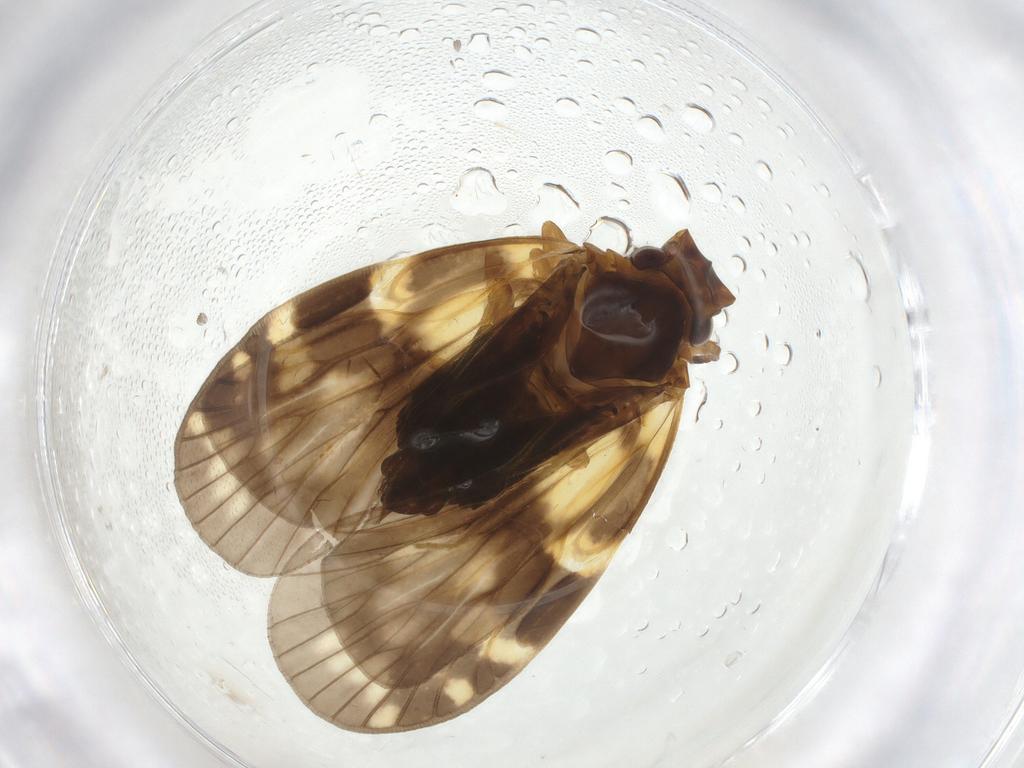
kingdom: Animalia
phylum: Arthropoda
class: Insecta
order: Hemiptera
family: Cixiidae
